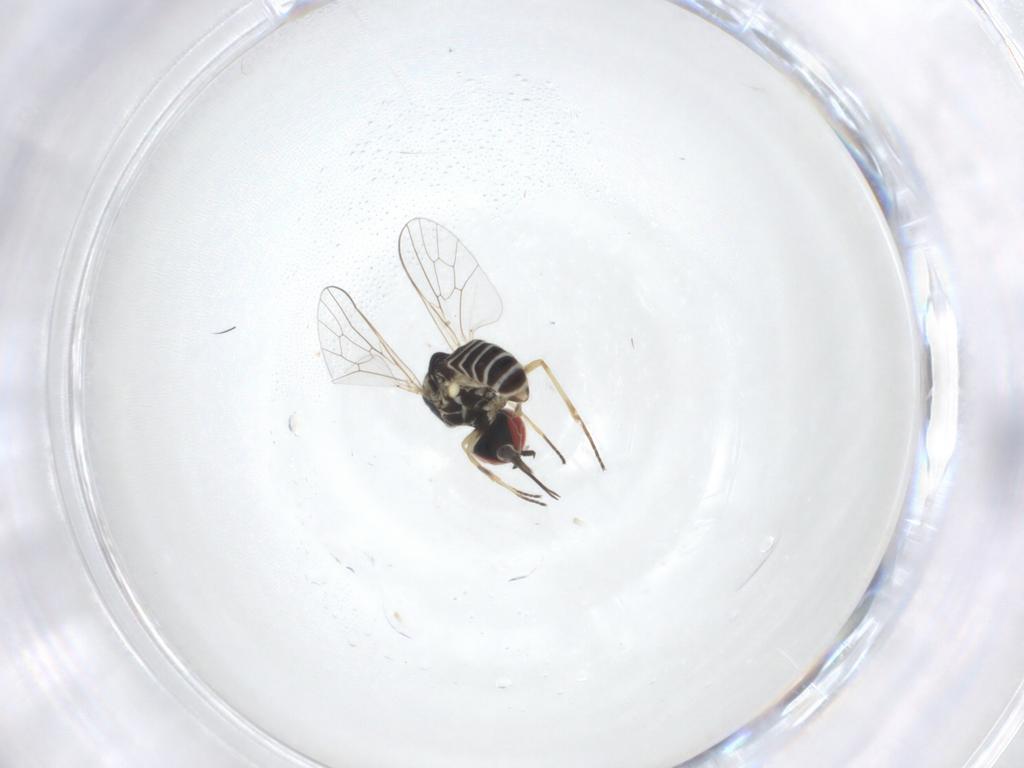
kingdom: Animalia
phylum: Arthropoda
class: Insecta
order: Diptera
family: Mythicomyiidae
